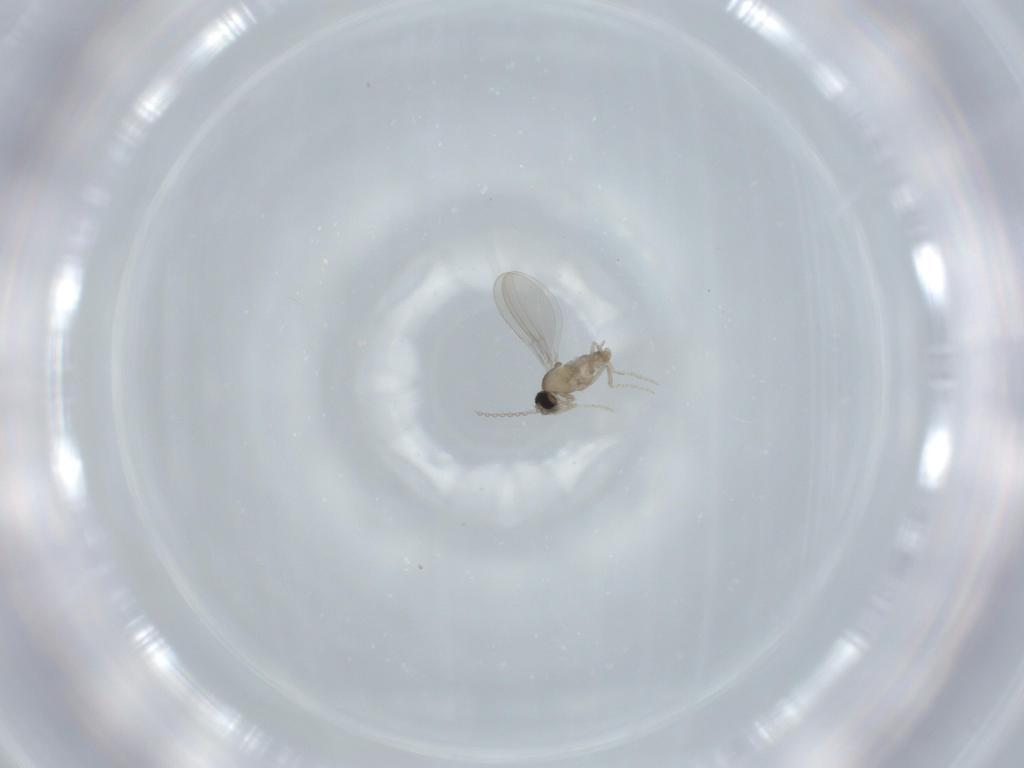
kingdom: Animalia
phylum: Arthropoda
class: Insecta
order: Diptera
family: Cecidomyiidae
